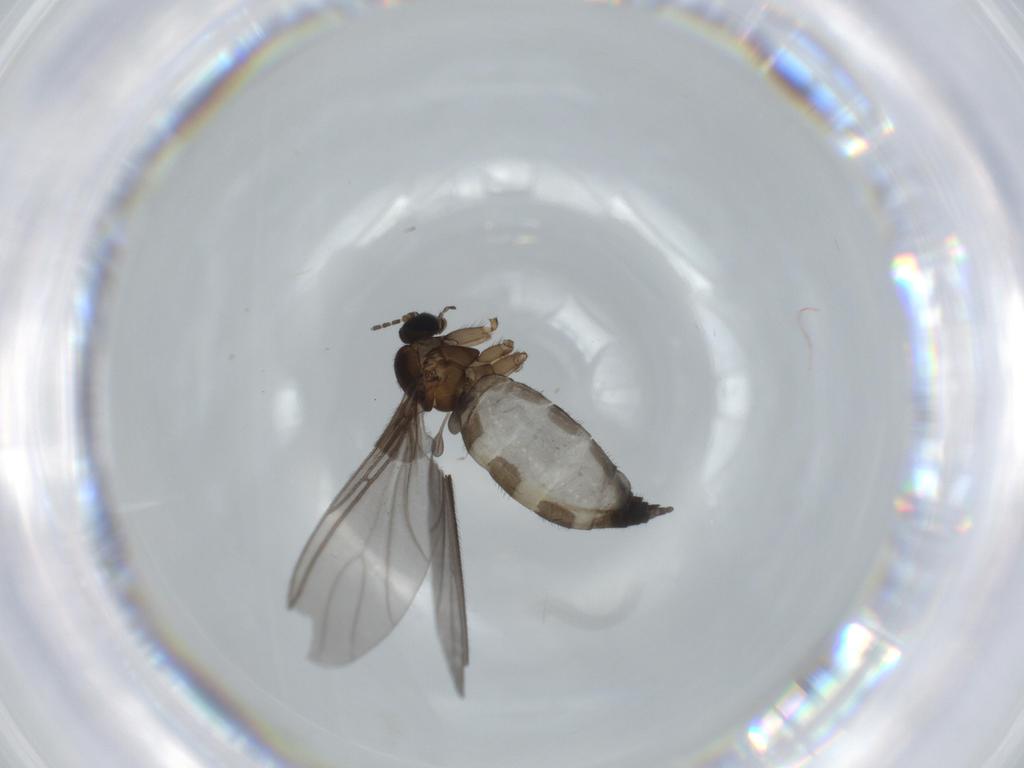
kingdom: Animalia
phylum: Arthropoda
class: Insecta
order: Diptera
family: Sciaridae
